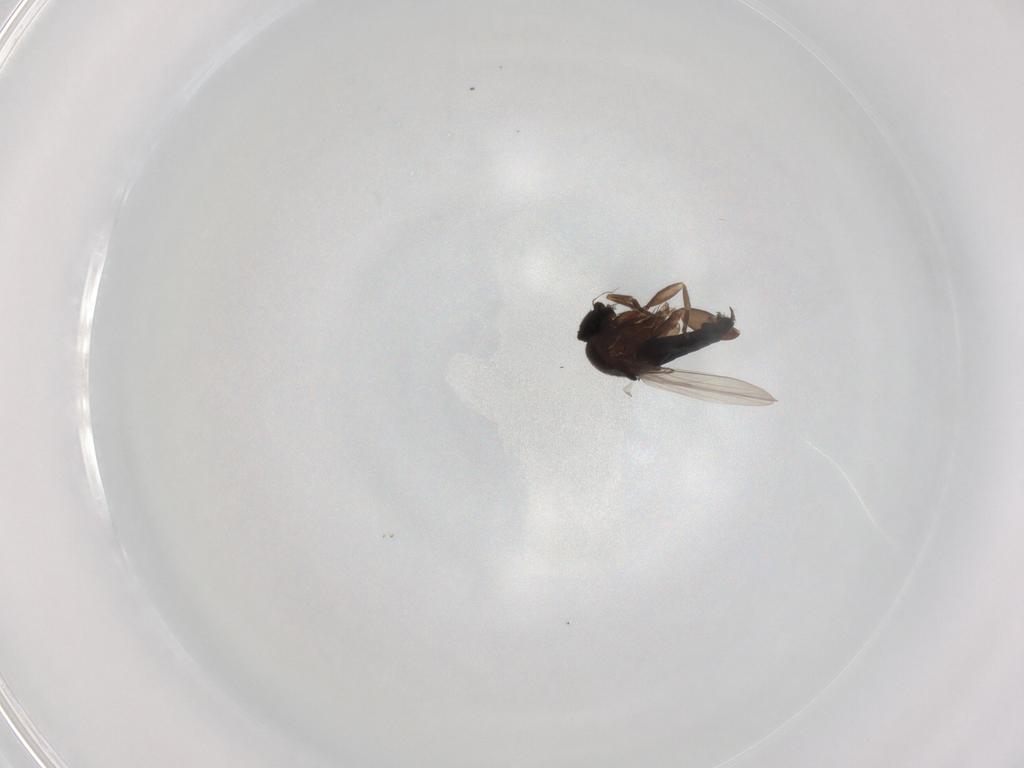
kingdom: Animalia
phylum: Arthropoda
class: Insecta
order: Diptera
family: Phoridae
